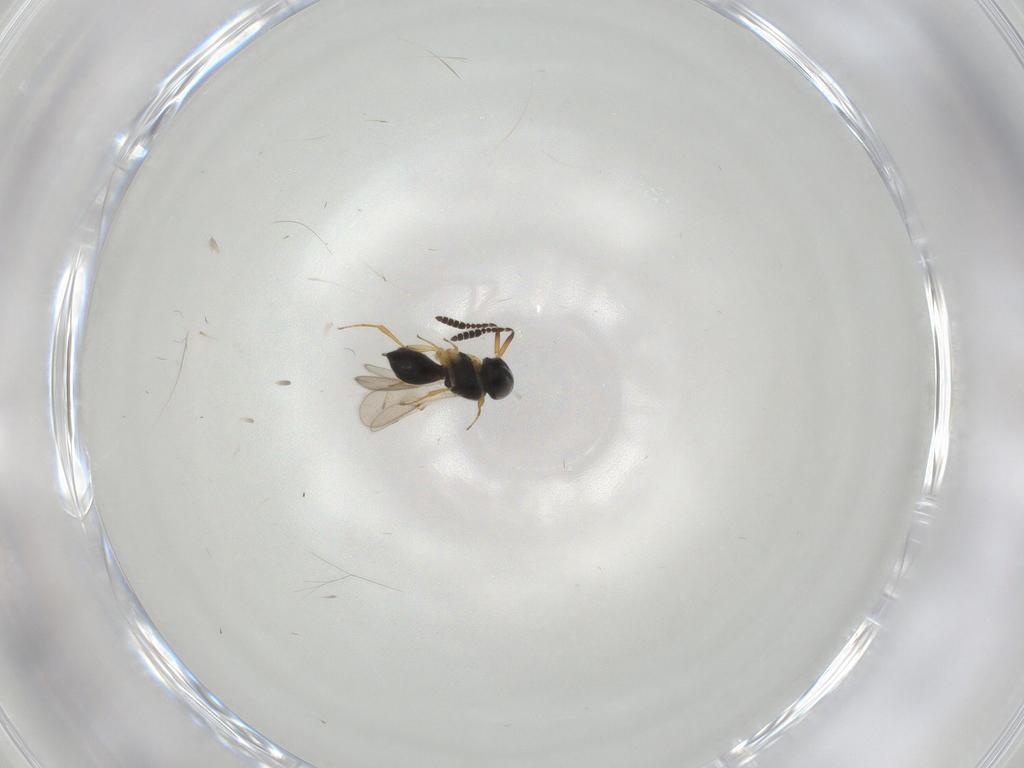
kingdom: Animalia
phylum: Arthropoda
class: Insecta
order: Hymenoptera
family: Scelionidae
